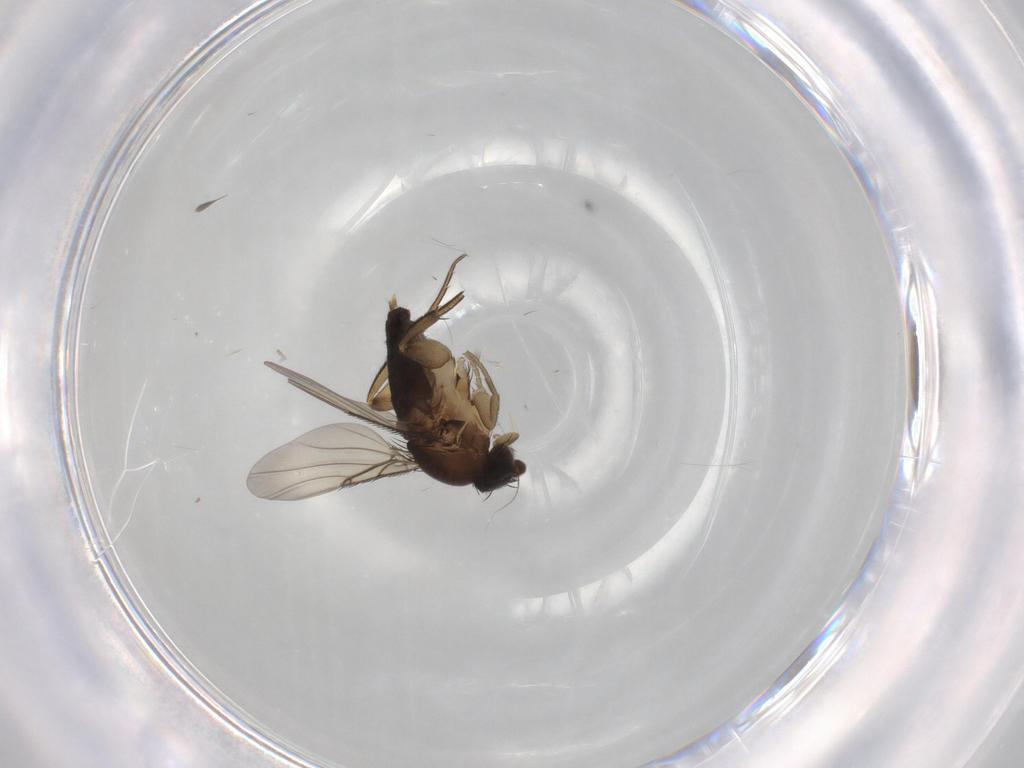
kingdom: Animalia
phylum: Arthropoda
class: Insecta
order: Diptera
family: Phoridae
